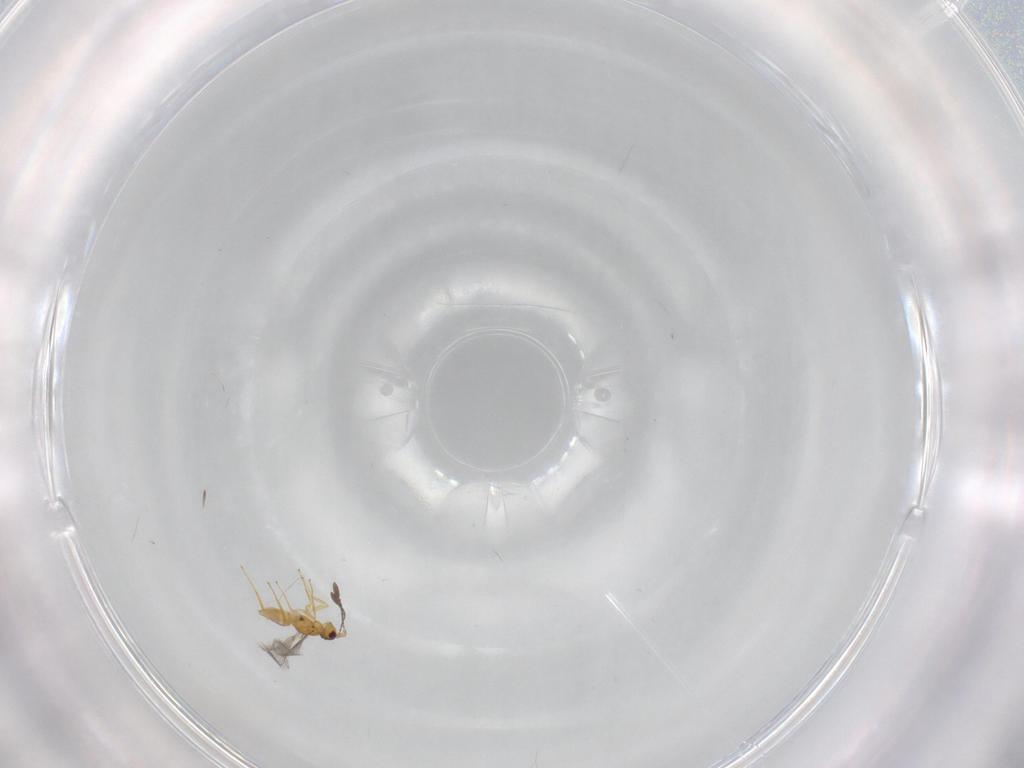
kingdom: Animalia
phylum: Arthropoda
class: Insecta
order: Hymenoptera
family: Mymaridae
